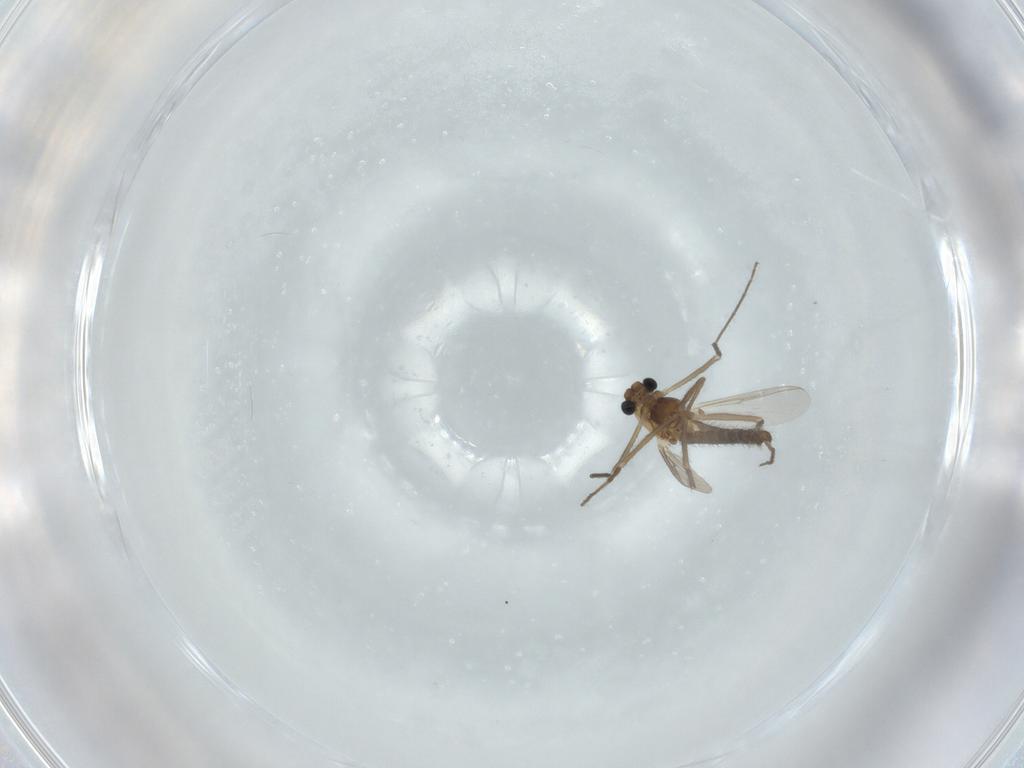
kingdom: Animalia
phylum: Arthropoda
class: Insecta
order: Diptera
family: Chironomidae
